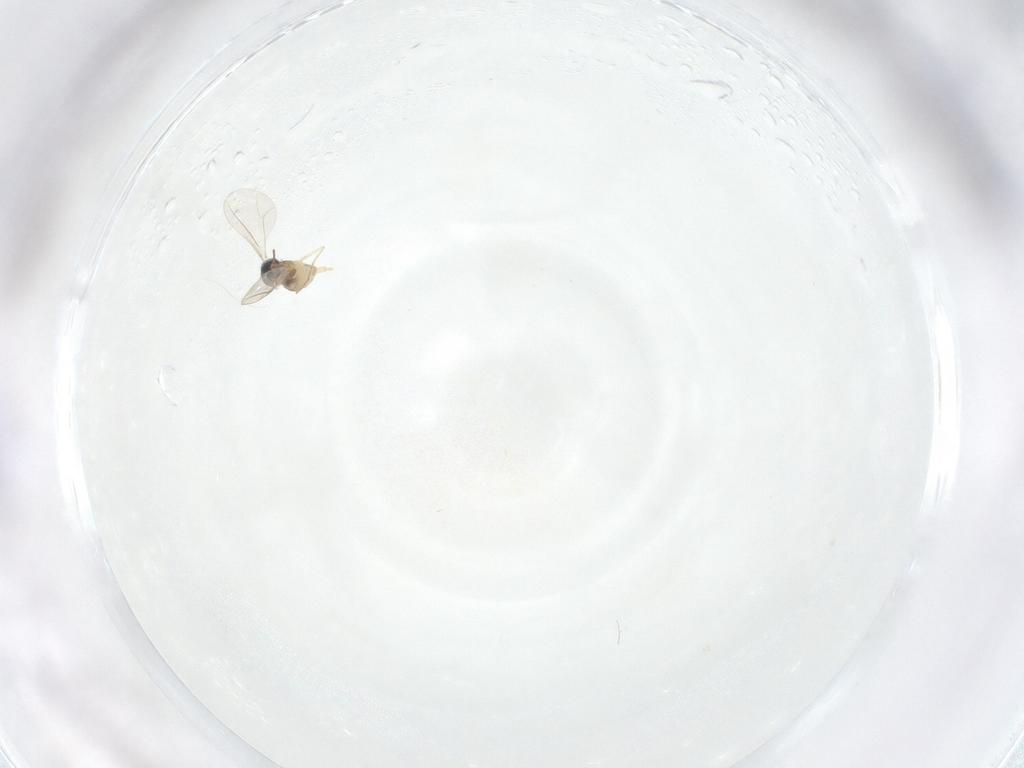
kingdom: Animalia
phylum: Arthropoda
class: Insecta
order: Diptera
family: Cecidomyiidae
